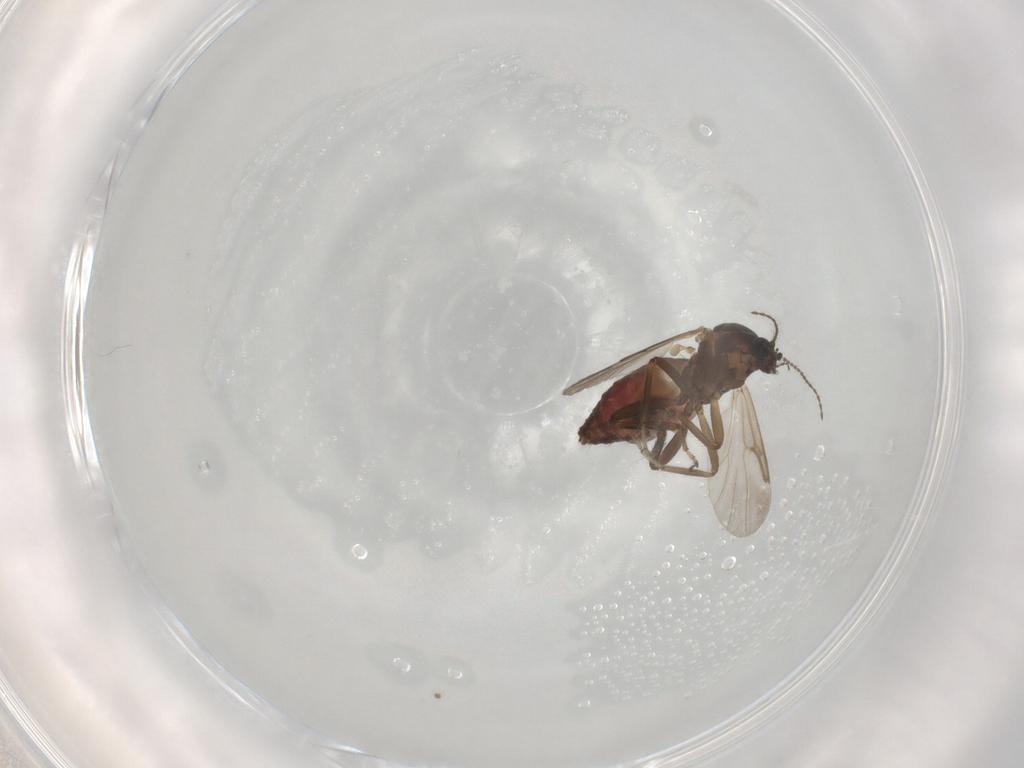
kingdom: Animalia
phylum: Arthropoda
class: Insecta
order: Diptera
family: Ceratopogonidae
